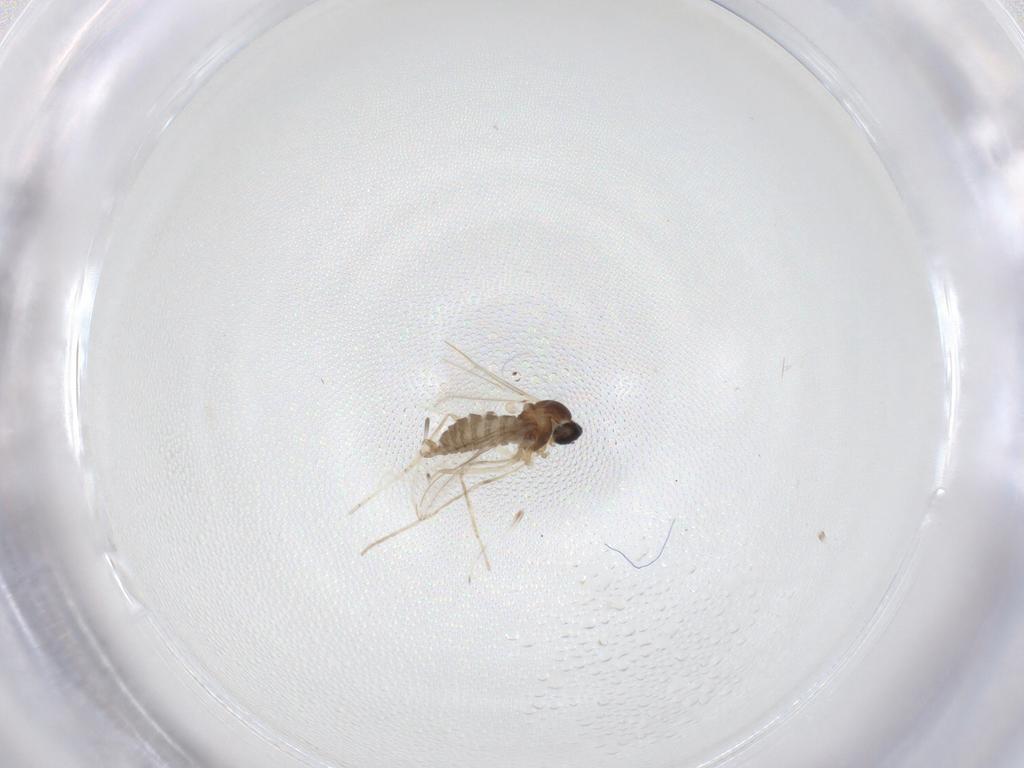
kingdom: Animalia
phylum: Arthropoda
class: Insecta
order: Diptera
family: Cecidomyiidae
